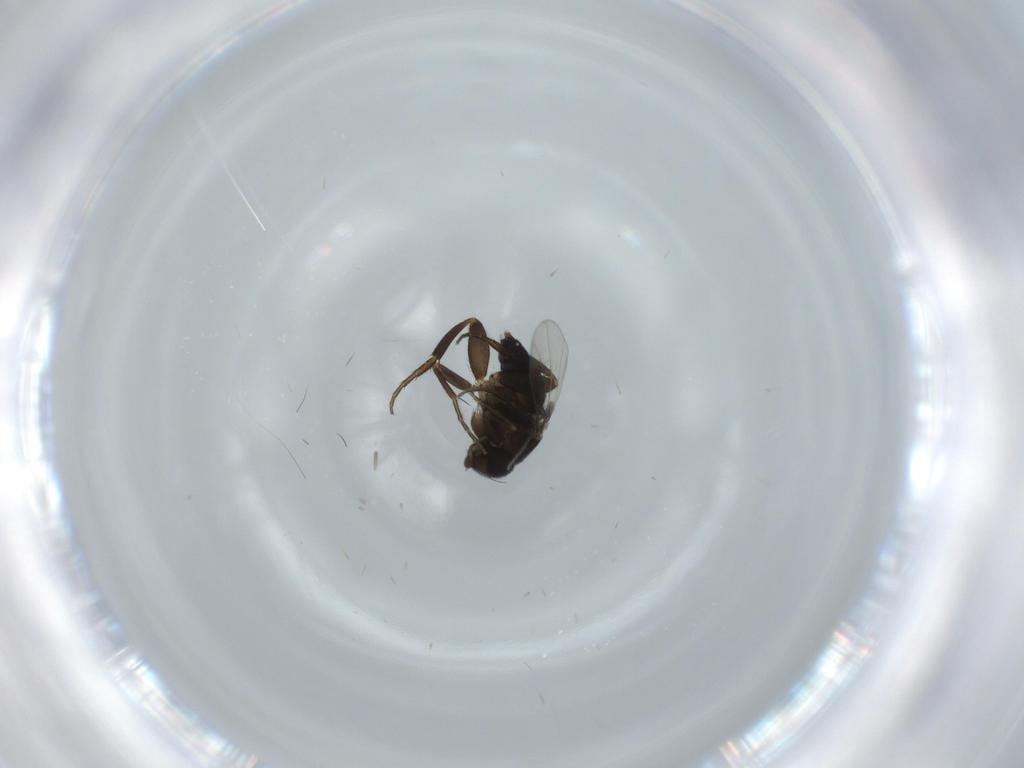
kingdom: Animalia
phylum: Arthropoda
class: Insecta
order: Diptera
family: Phoridae
